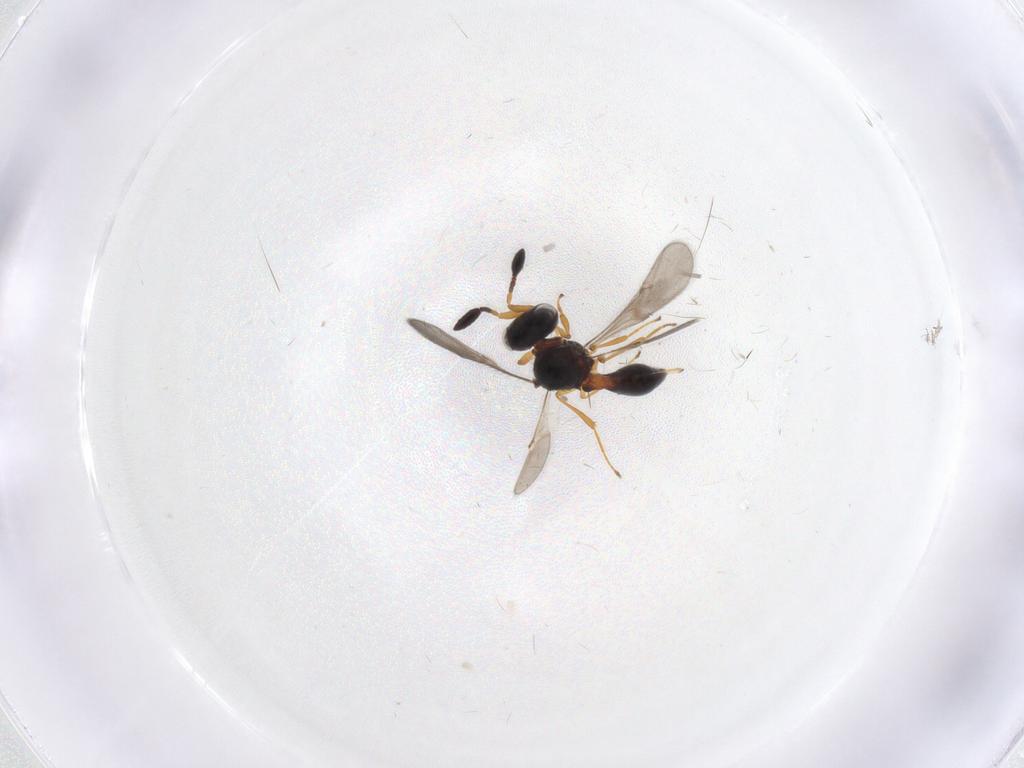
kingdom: Animalia
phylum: Arthropoda
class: Insecta
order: Hymenoptera
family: Scelionidae
